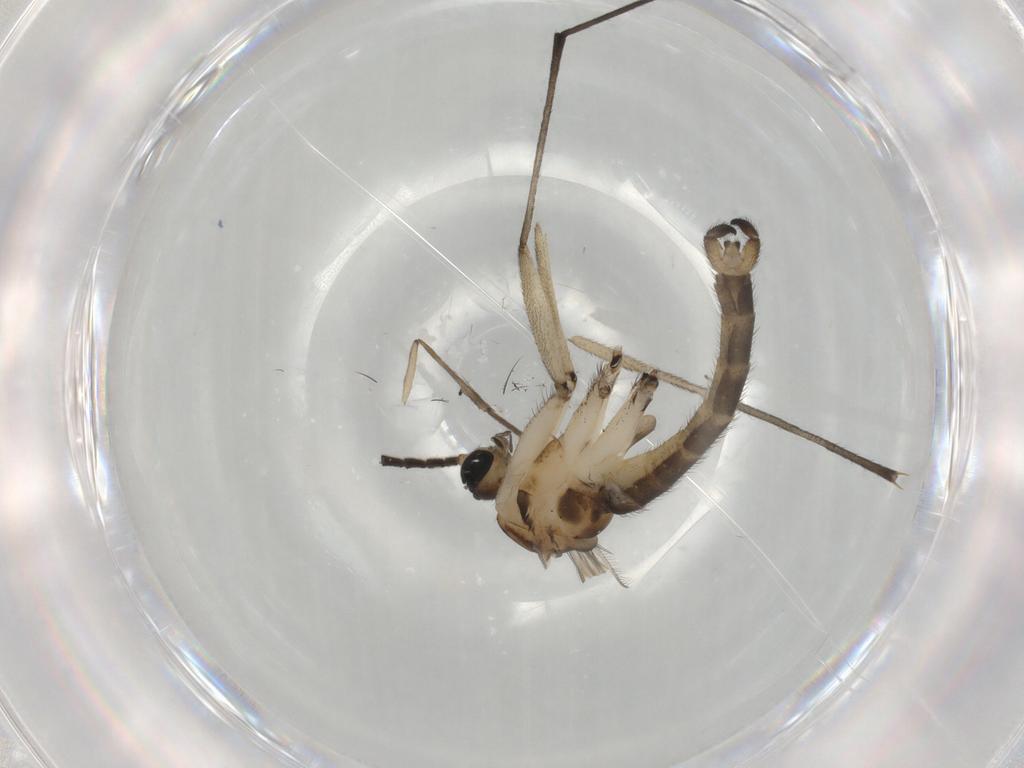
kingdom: Animalia
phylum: Arthropoda
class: Insecta
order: Diptera
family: Sciaridae
